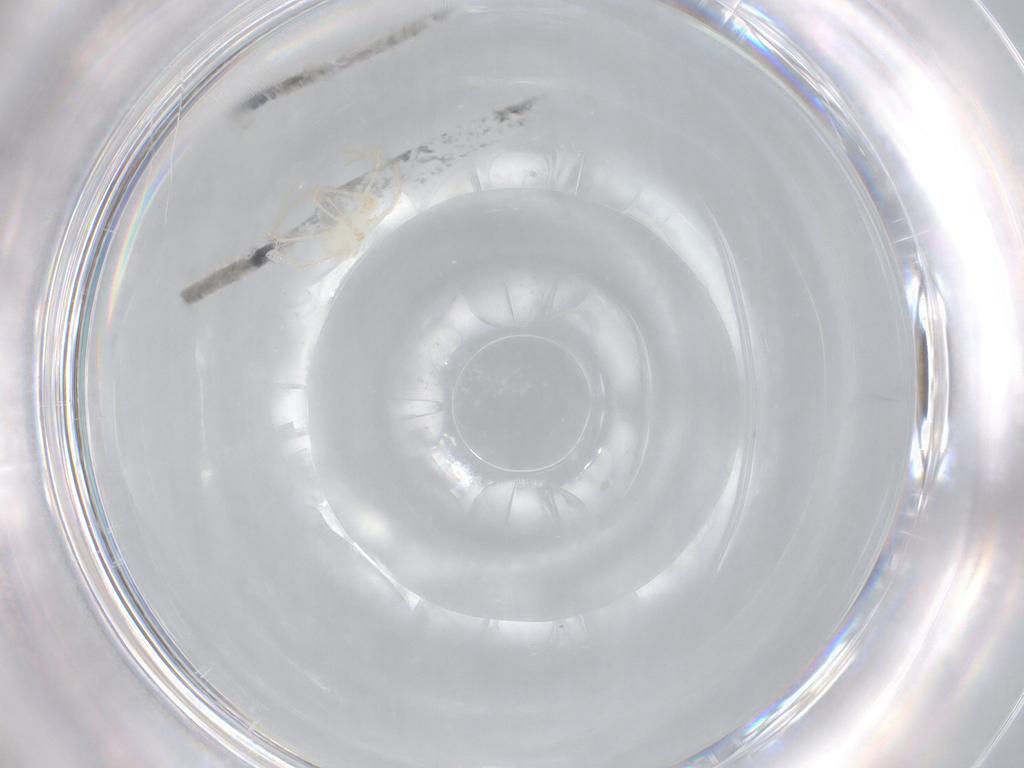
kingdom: Animalia
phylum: Arthropoda
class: Arachnida
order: Trombidiformes
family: Erythraeidae
